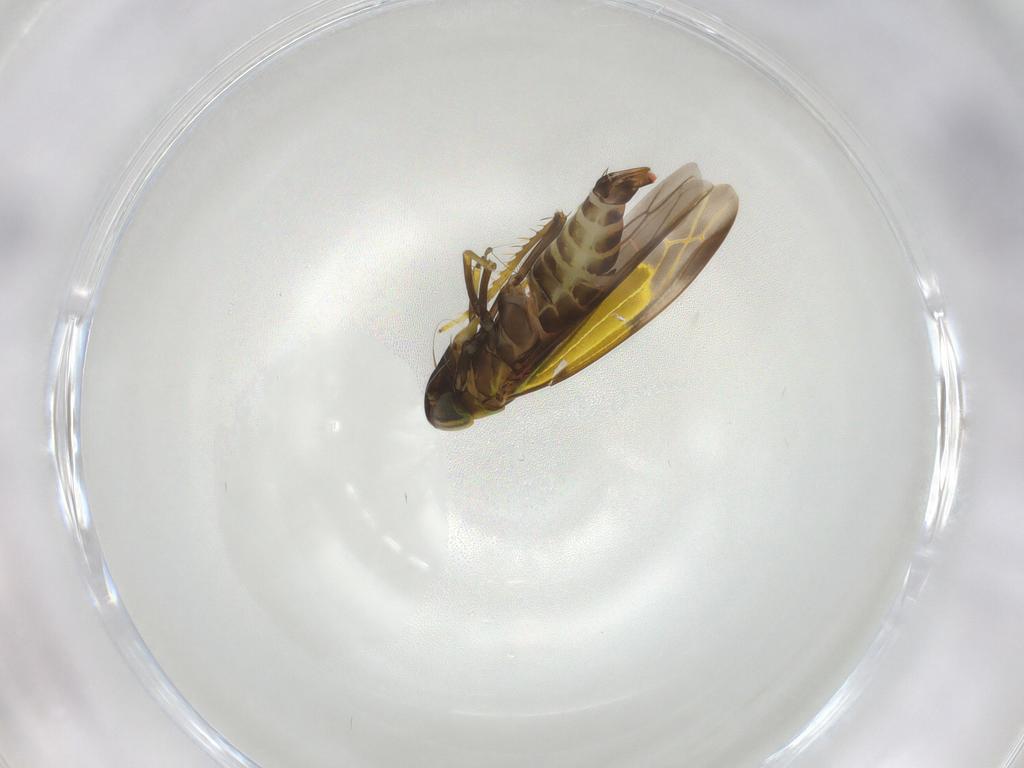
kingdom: Animalia
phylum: Arthropoda
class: Insecta
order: Hemiptera
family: Cicadellidae
